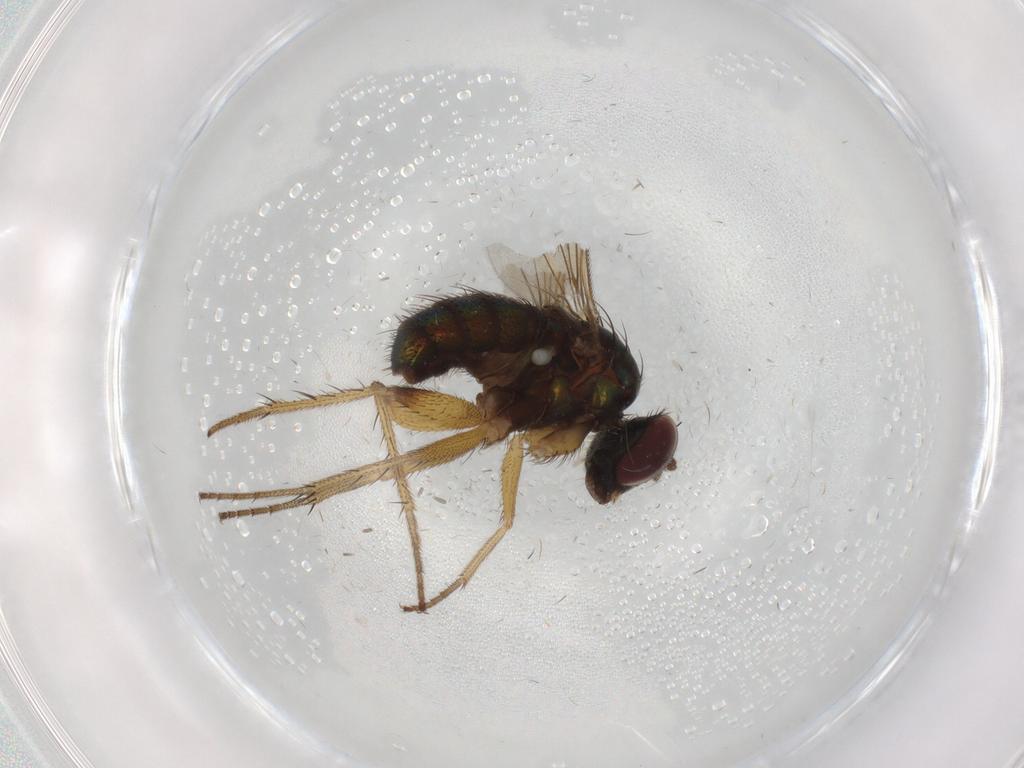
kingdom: Animalia
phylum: Arthropoda
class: Insecta
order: Diptera
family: Dolichopodidae
